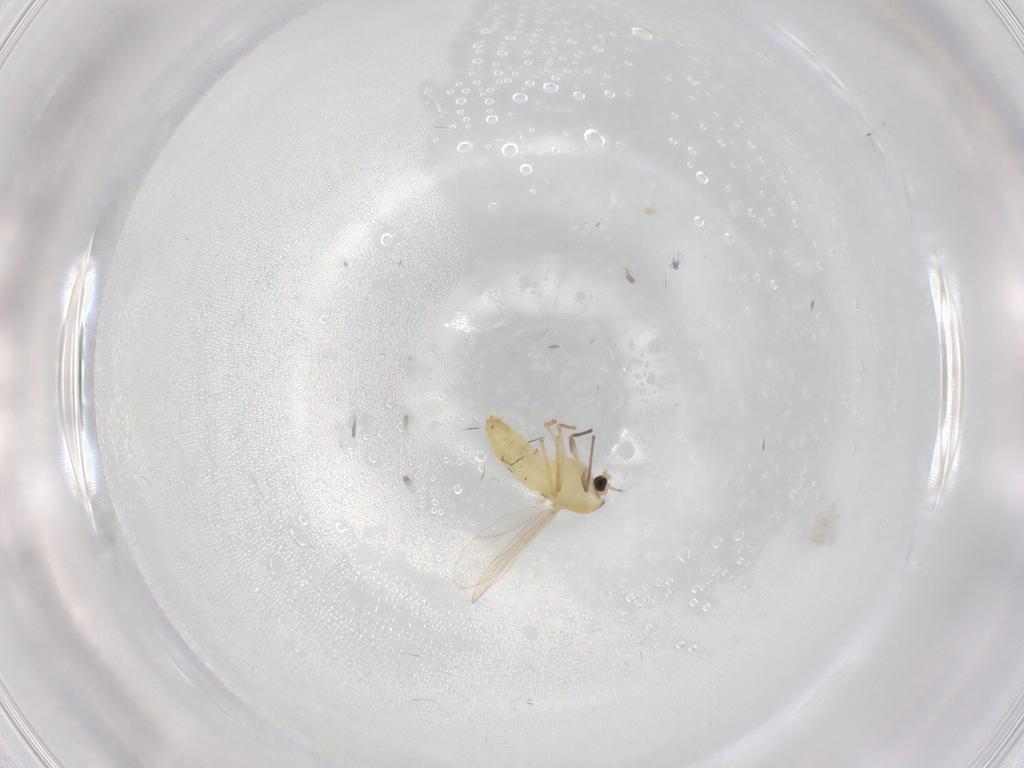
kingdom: Animalia
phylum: Arthropoda
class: Insecta
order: Diptera
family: Chironomidae
